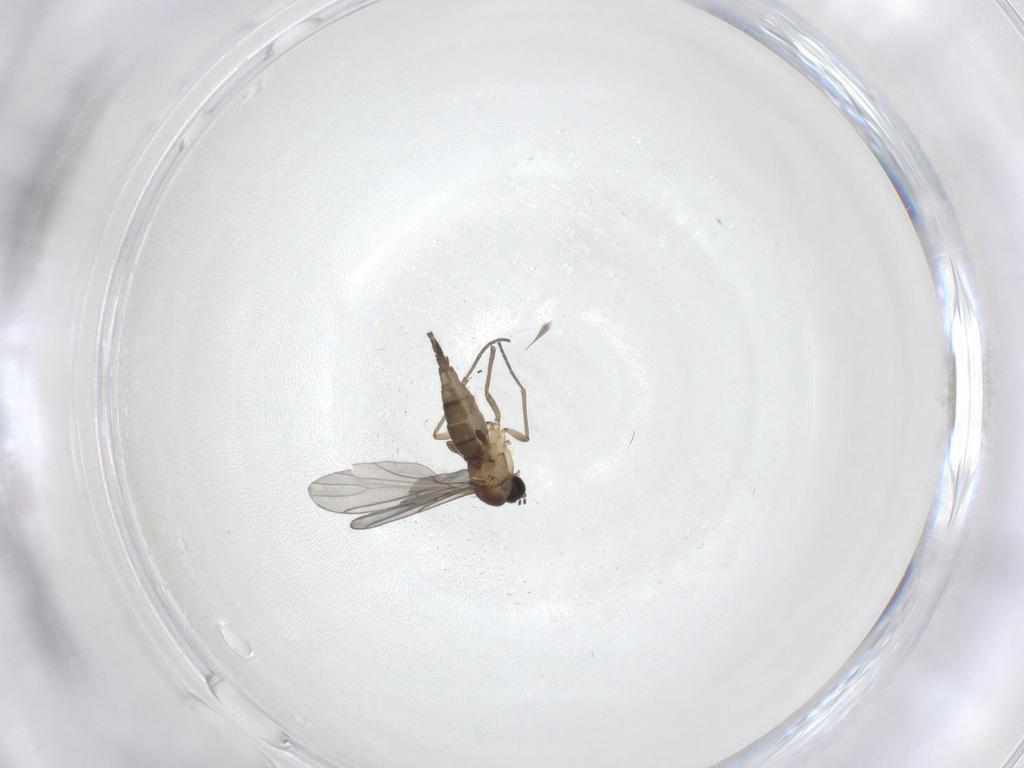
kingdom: Animalia
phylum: Arthropoda
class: Insecta
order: Diptera
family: Sciaridae
